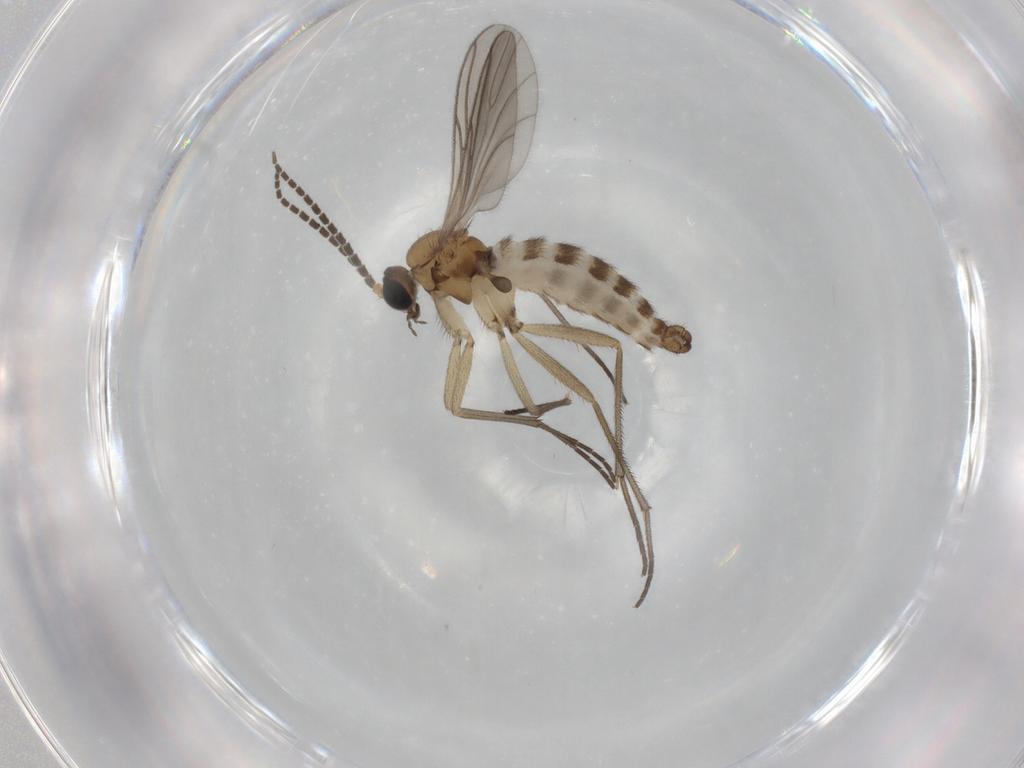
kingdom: Animalia
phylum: Arthropoda
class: Insecta
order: Diptera
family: Sciaridae
